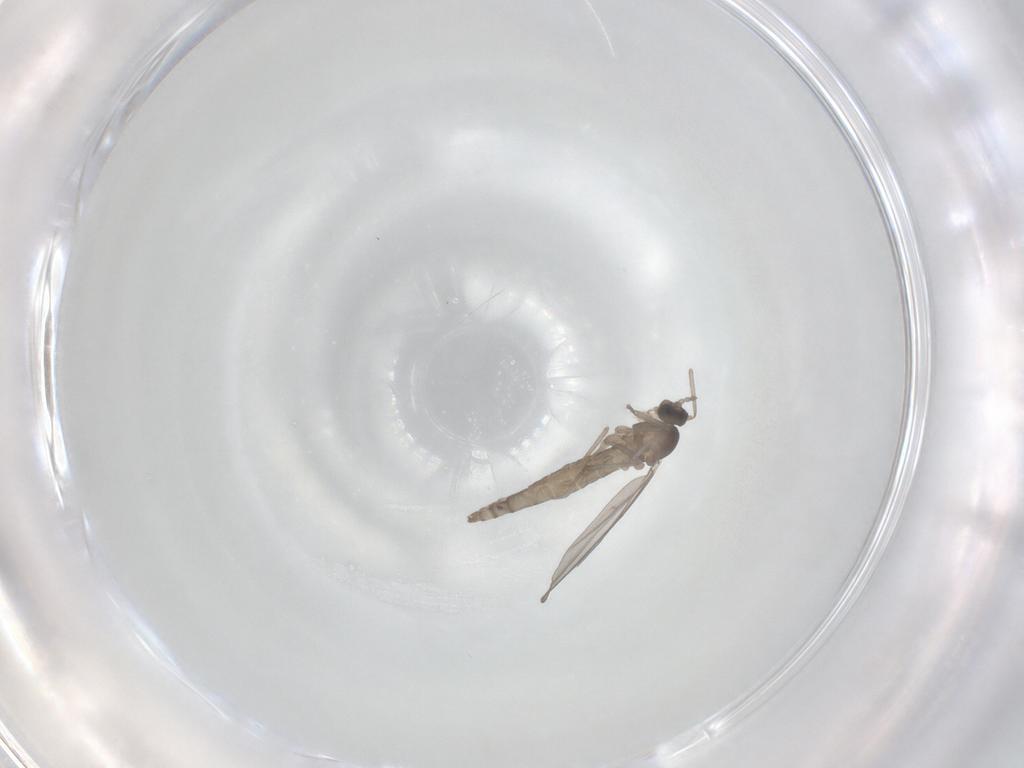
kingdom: Animalia
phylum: Arthropoda
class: Insecta
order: Diptera
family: Cecidomyiidae
